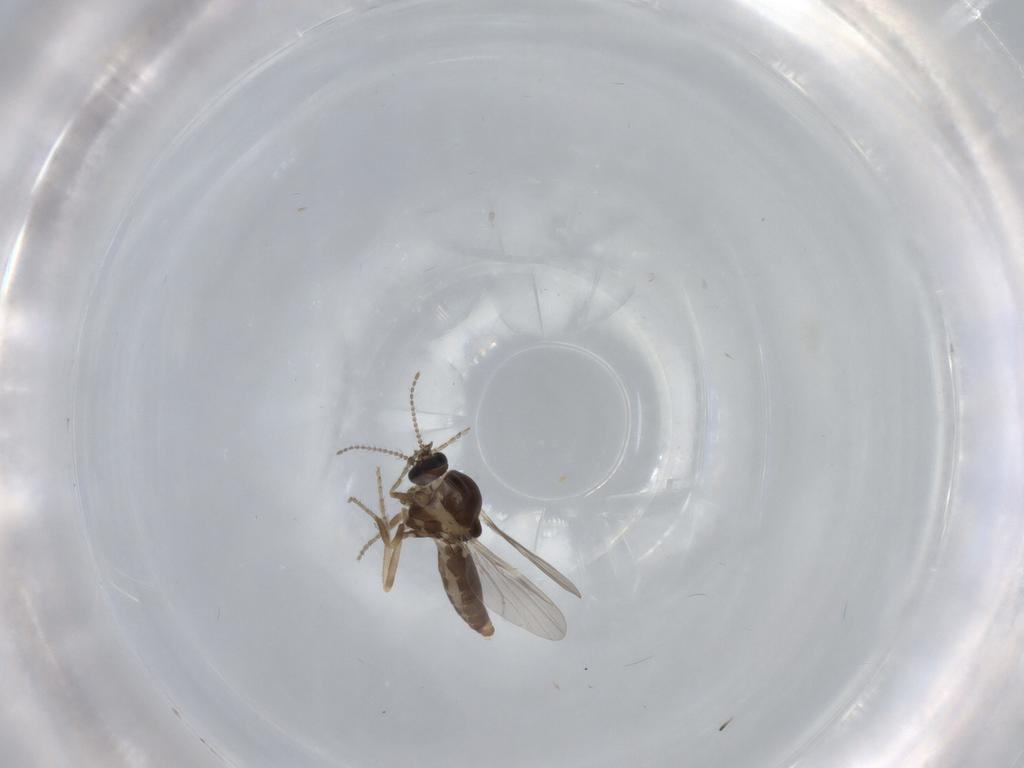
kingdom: Animalia
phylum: Arthropoda
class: Insecta
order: Diptera
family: Ceratopogonidae
